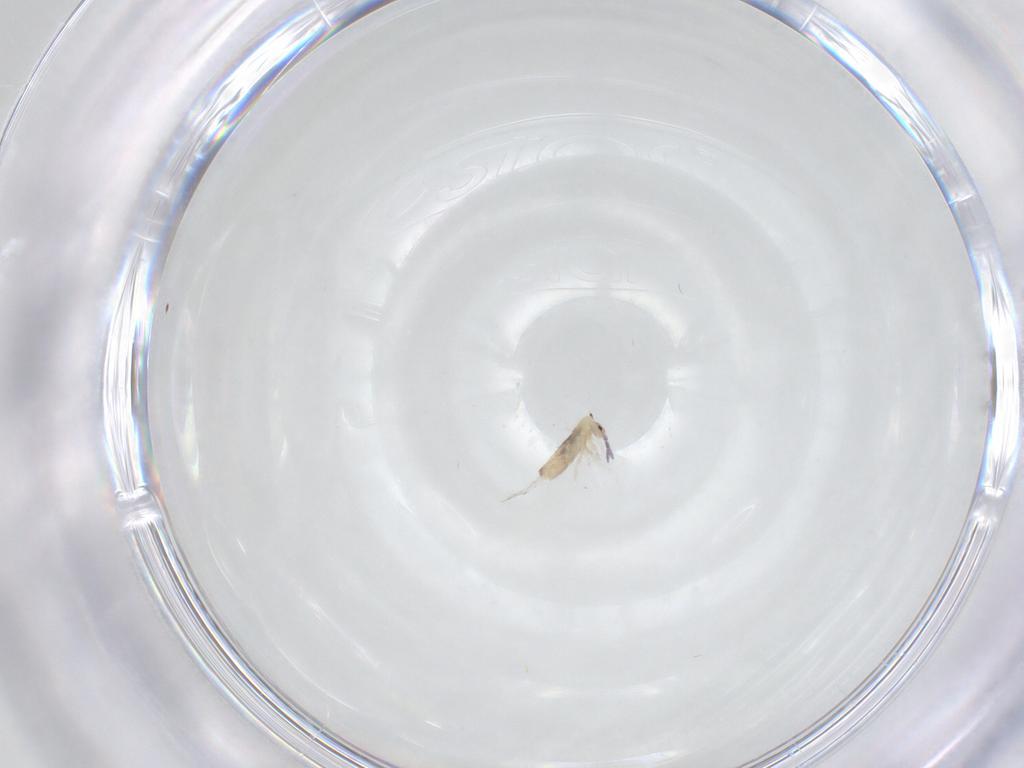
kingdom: Animalia
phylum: Arthropoda
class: Collembola
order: Entomobryomorpha
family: Entomobryidae
